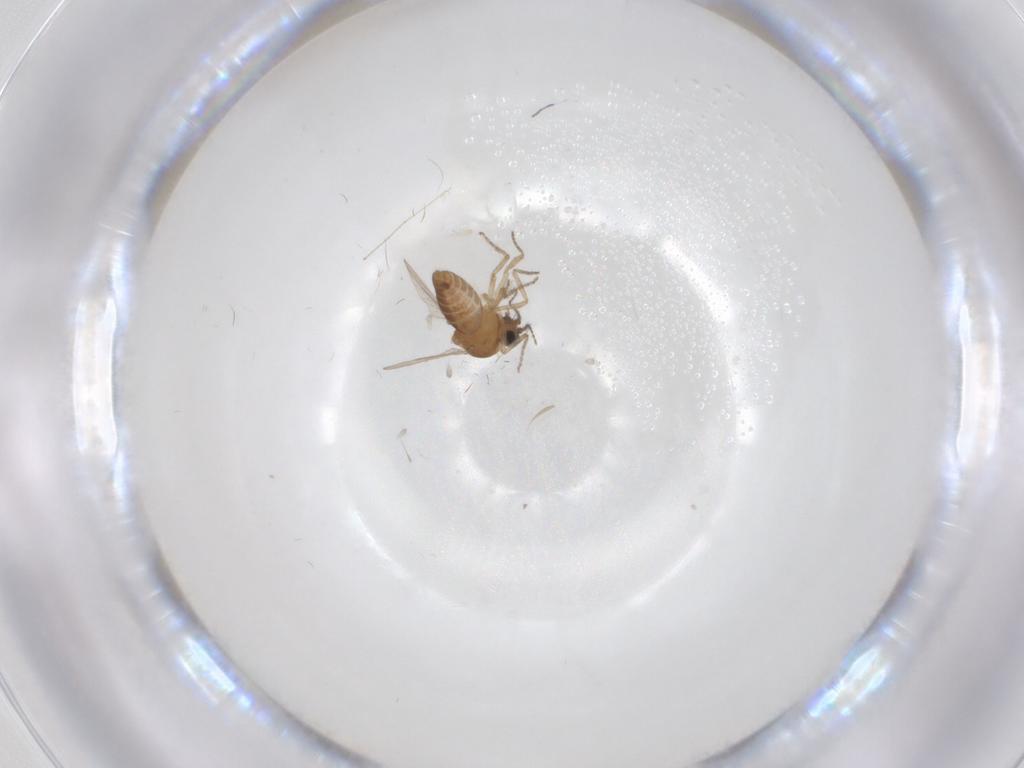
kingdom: Animalia
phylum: Arthropoda
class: Insecta
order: Diptera
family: Ceratopogonidae
